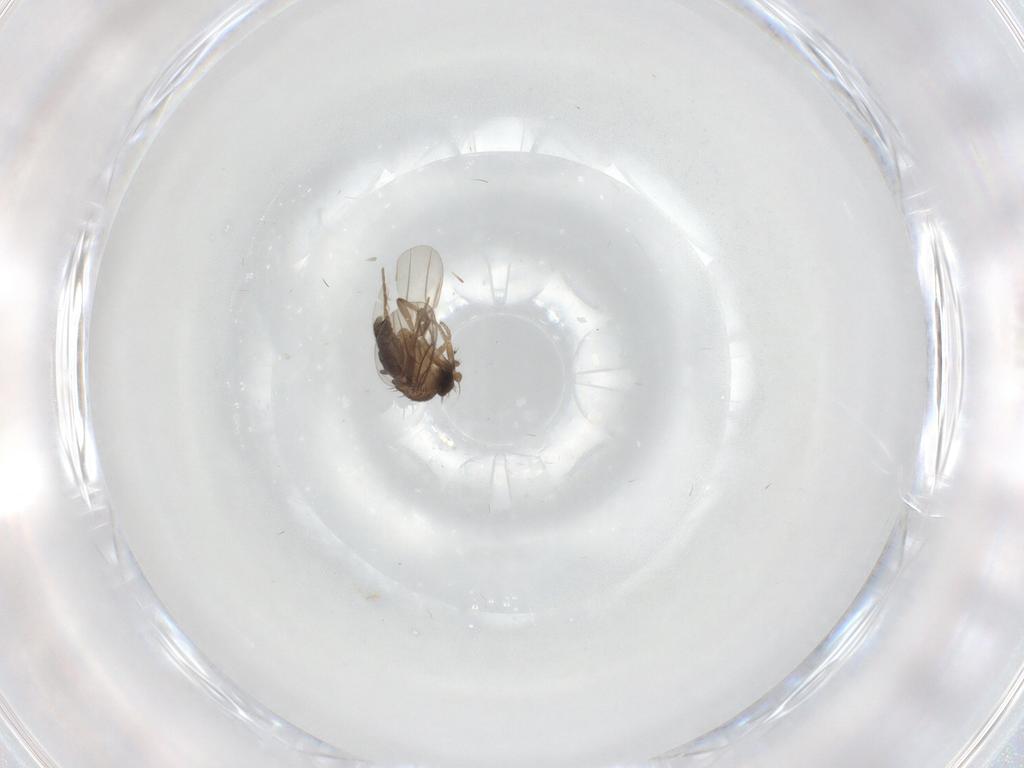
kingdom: Animalia
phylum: Arthropoda
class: Insecta
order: Diptera
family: Phoridae
